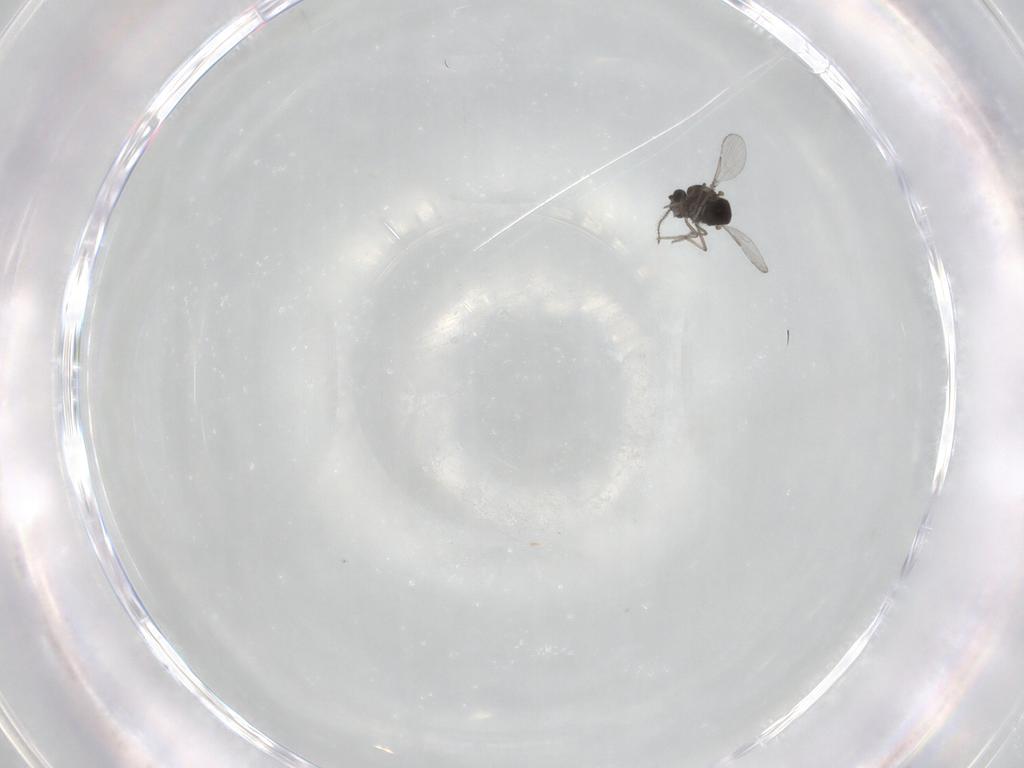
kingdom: Animalia
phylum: Arthropoda
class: Insecta
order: Diptera
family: Ceratopogonidae
